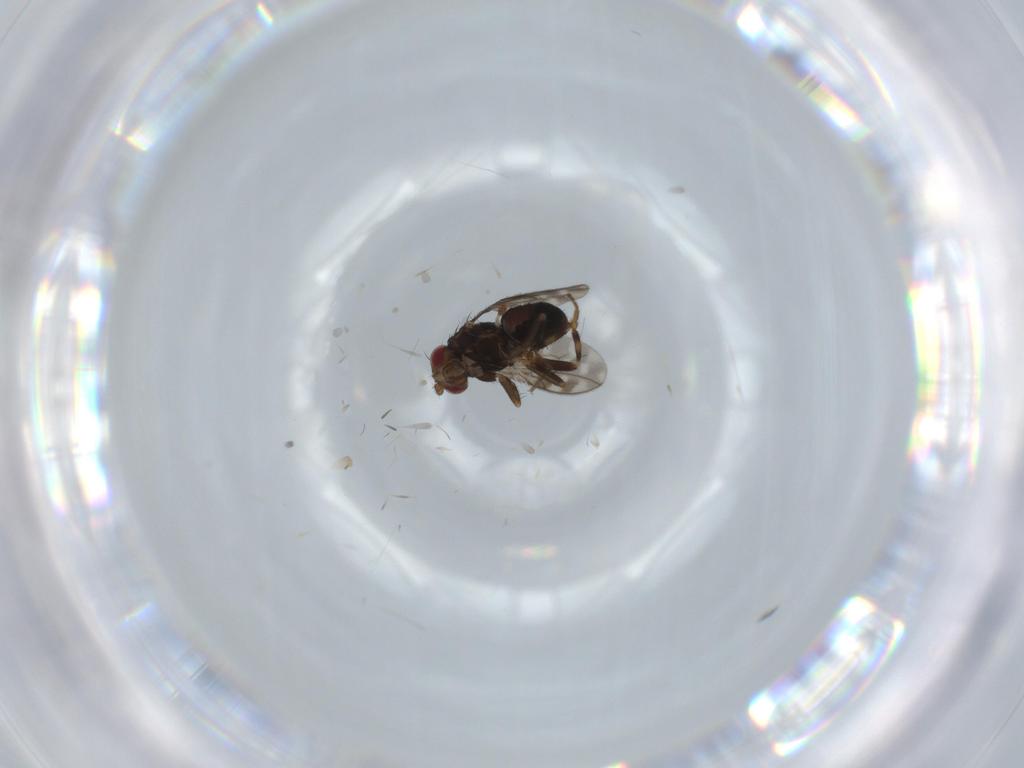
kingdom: Animalia
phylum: Arthropoda
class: Insecta
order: Diptera
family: Sphaeroceridae
